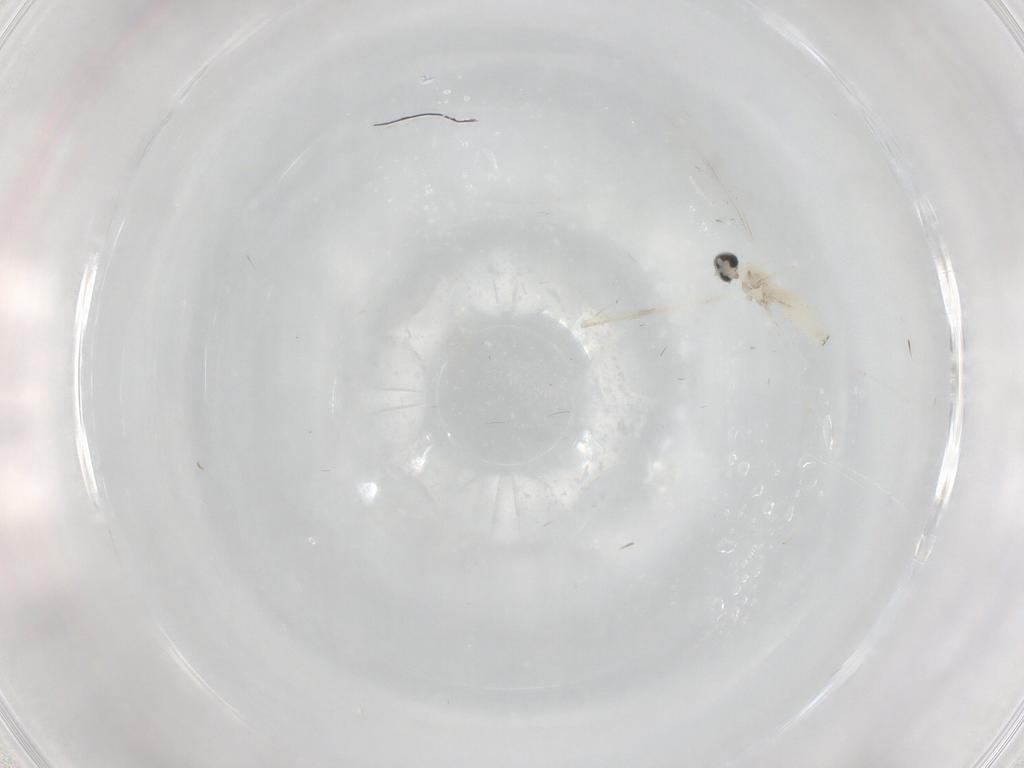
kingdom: Animalia
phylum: Arthropoda
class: Insecta
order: Diptera
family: Cecidomyiidae
